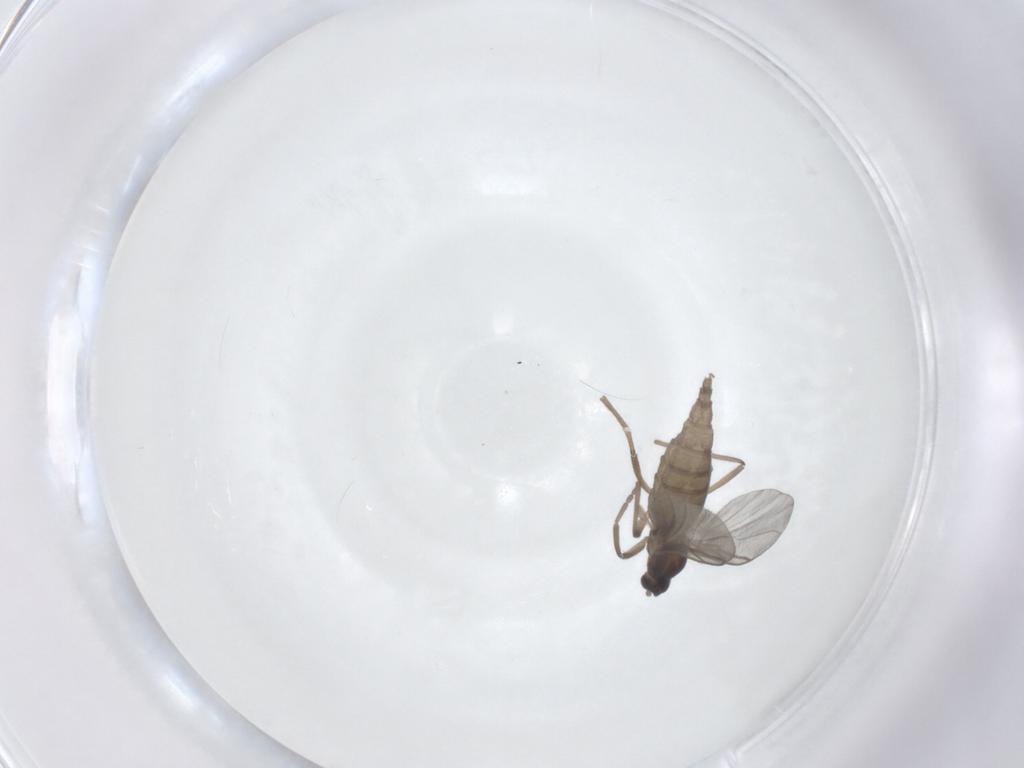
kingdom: Animalia
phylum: Arthropoda
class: Insecta
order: Diptera
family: Cecidomyiidae
